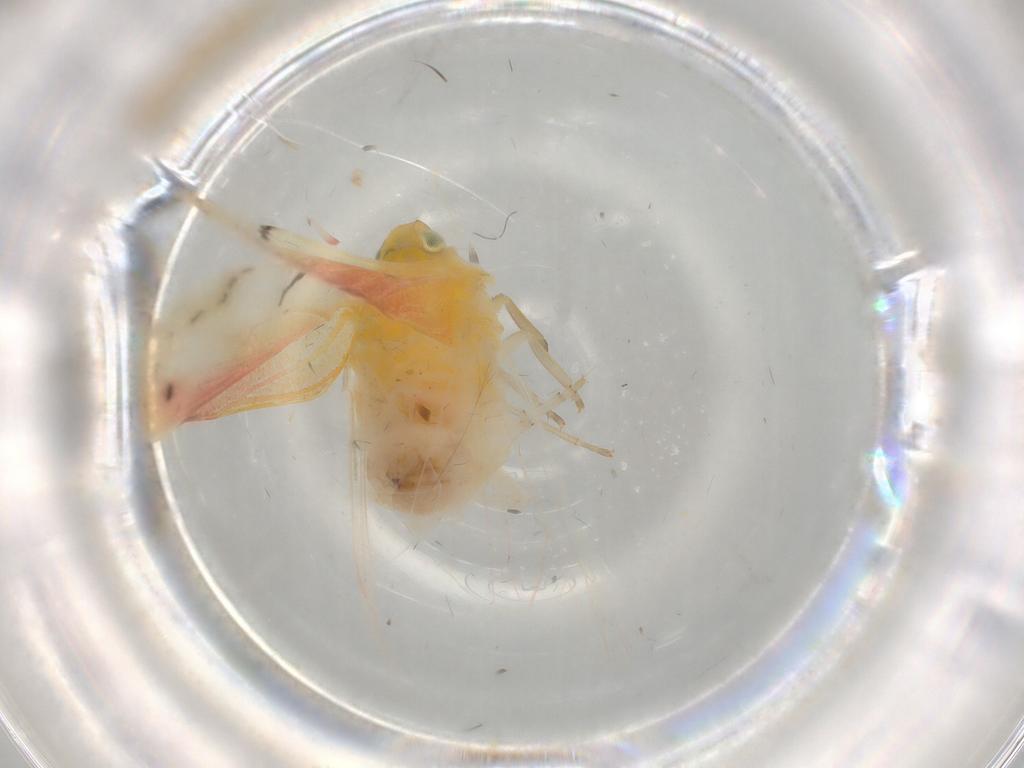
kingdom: Animalia
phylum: Arthropoda
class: Insecta
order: Hemiptera
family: Derbidae
